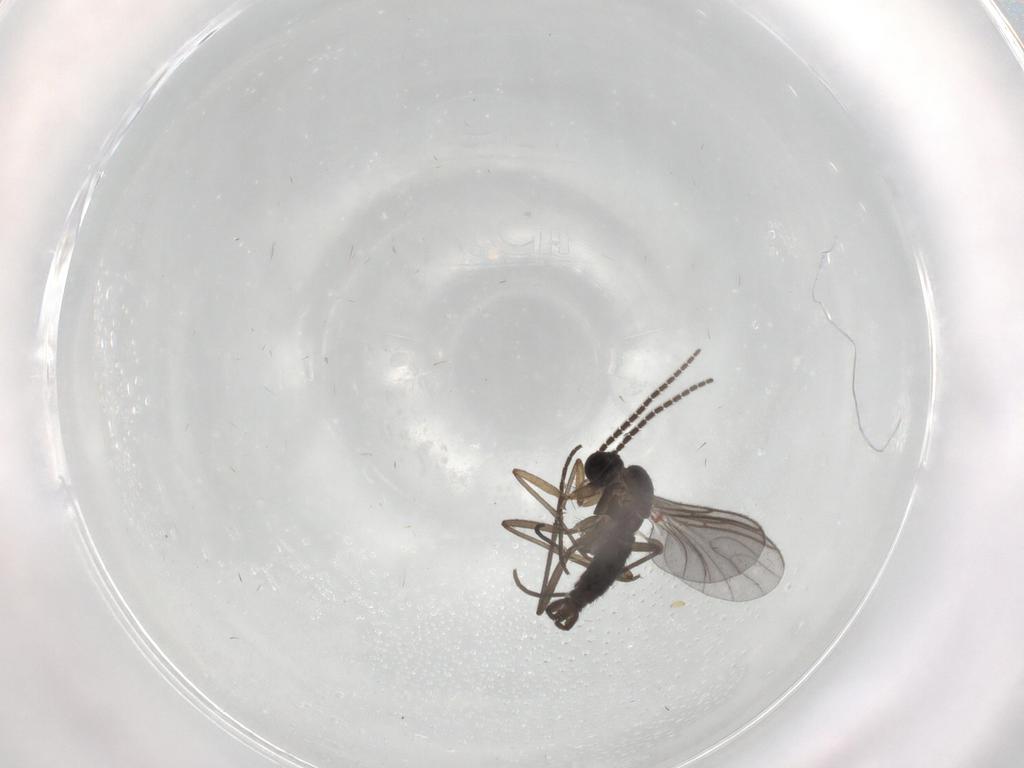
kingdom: Animalia
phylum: Arthropoda
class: Insecta
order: Diptera
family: Sciaridae
